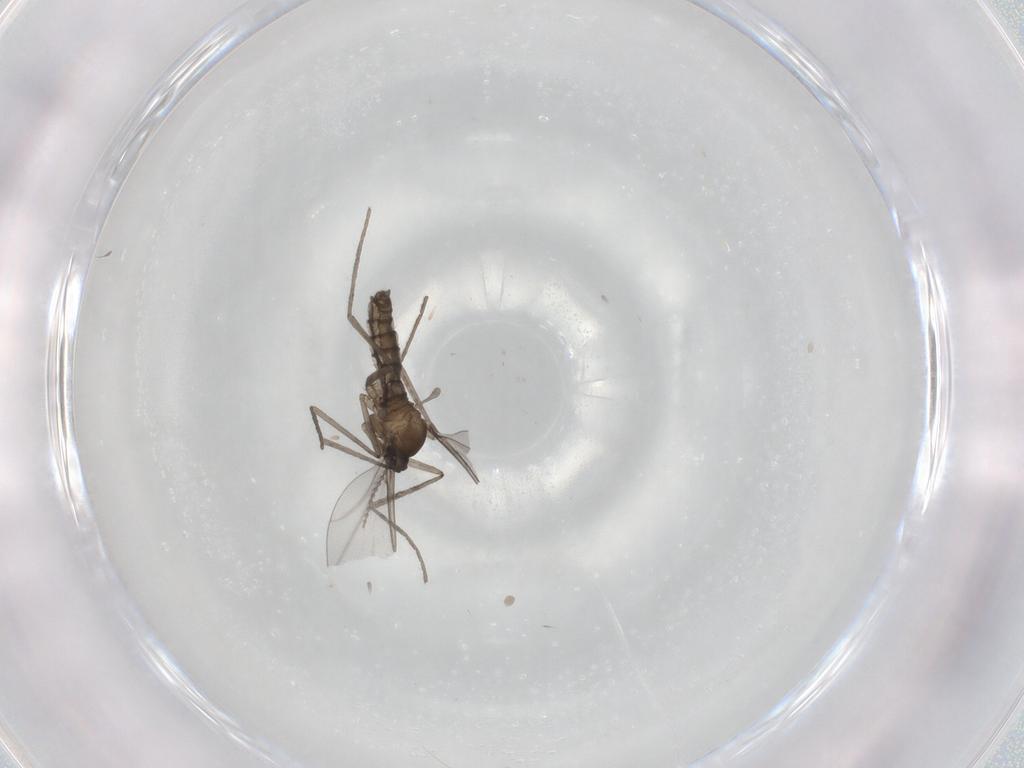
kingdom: Animalia
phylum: Arthropoda
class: Insecta
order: Diptera
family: Cecidomyiidae
